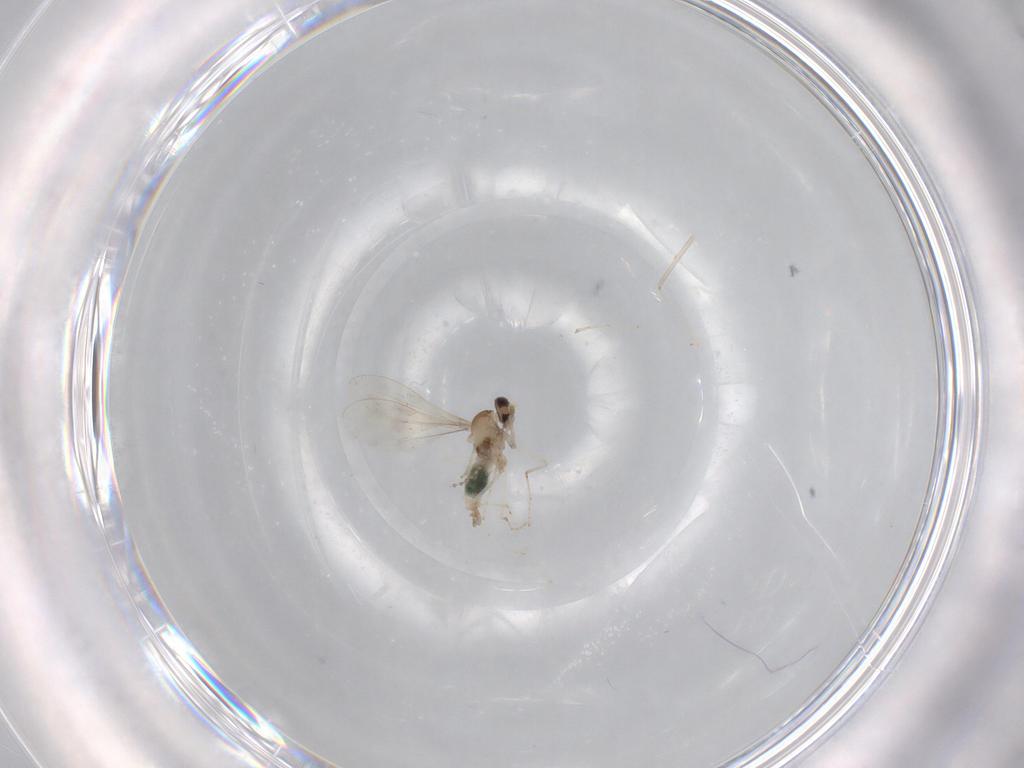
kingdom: Animalia
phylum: Arthropoda
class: Insecta
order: Diptera
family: Cecidomyiidae
